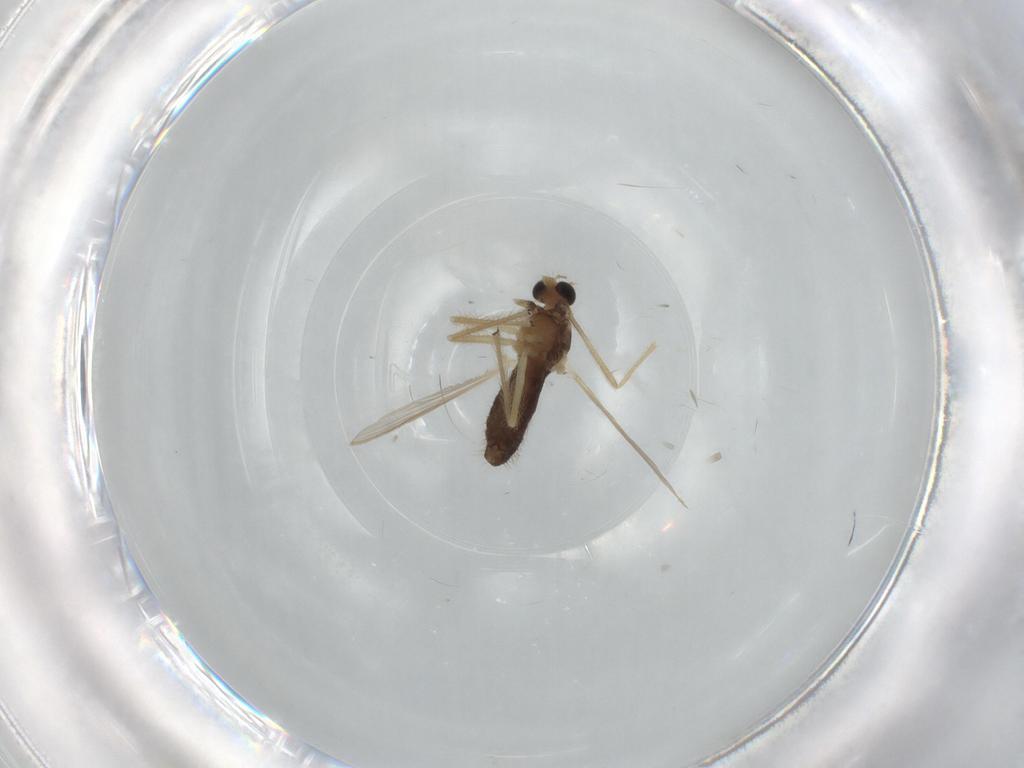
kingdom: Animalia
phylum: Arthropoda
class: Insecta
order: Diptera
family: Chironomidae
